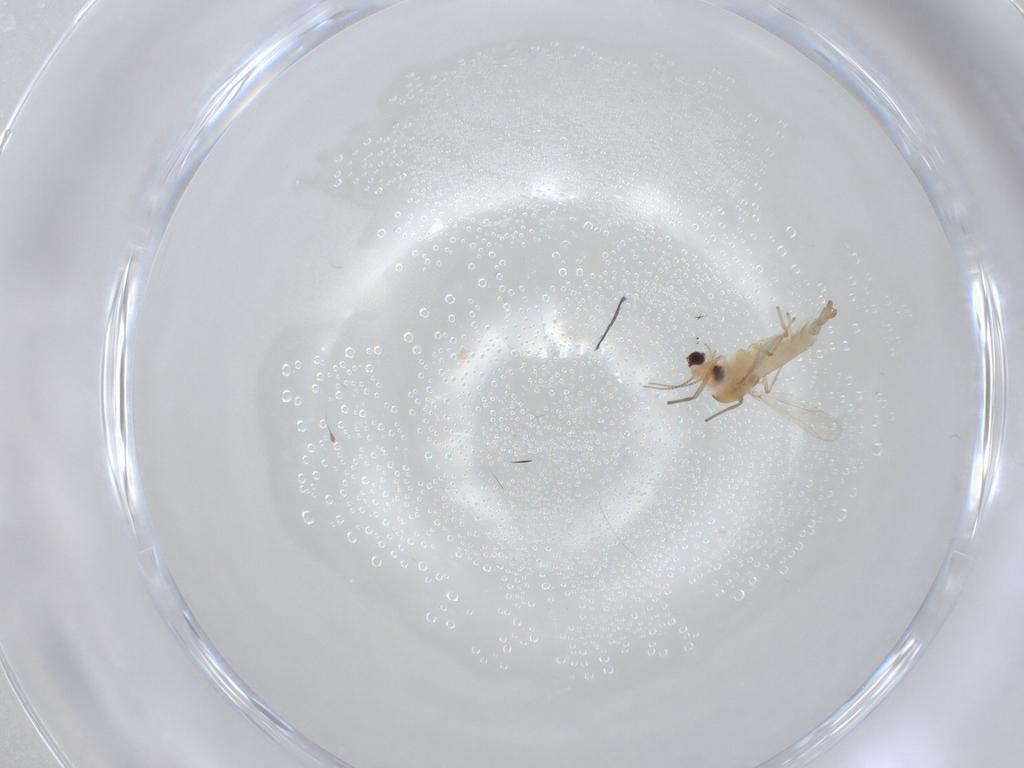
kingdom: Animalia
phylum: Arthropoda
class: Insecta
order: Diptera
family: Chironomidae
